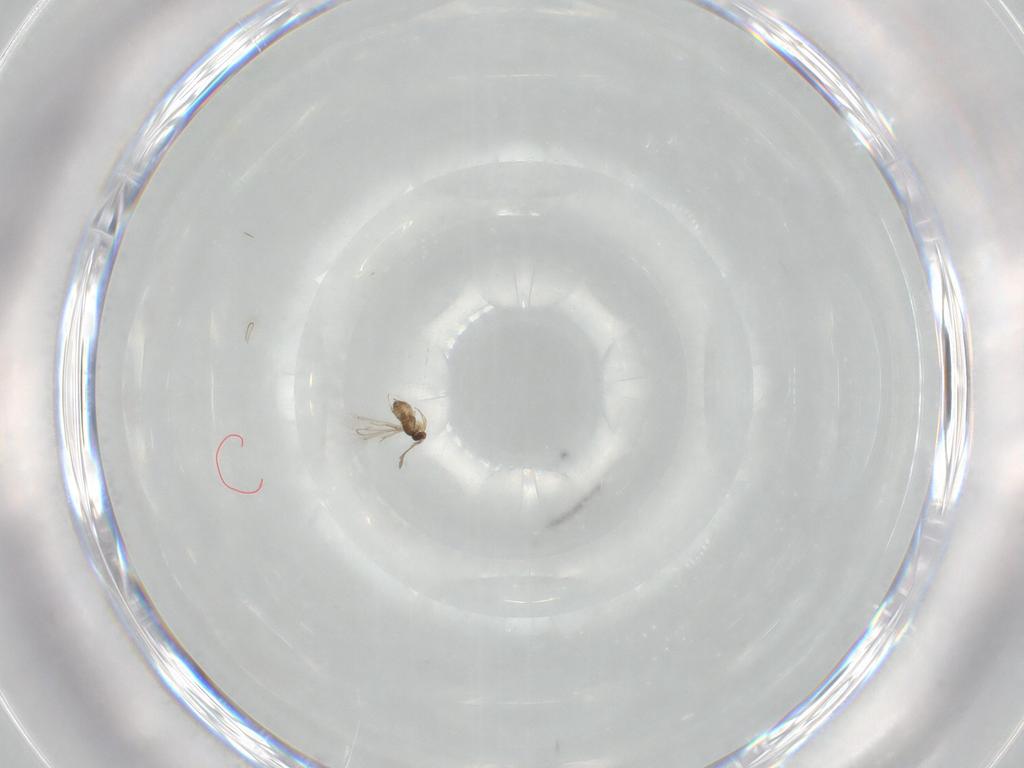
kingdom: Animalia
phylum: Arthropoda
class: Insecta
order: Hymenoptera
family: Mymaridae
